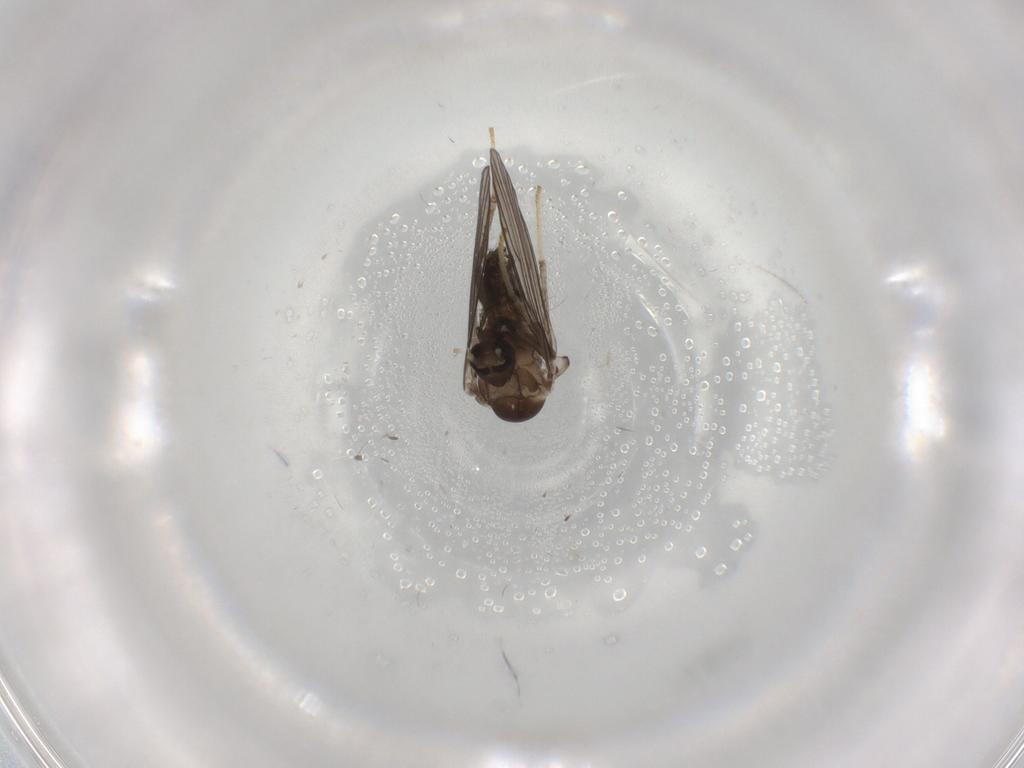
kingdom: Animalia
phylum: Arthropoda
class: Insecta
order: Diptera
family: Psychodidae
